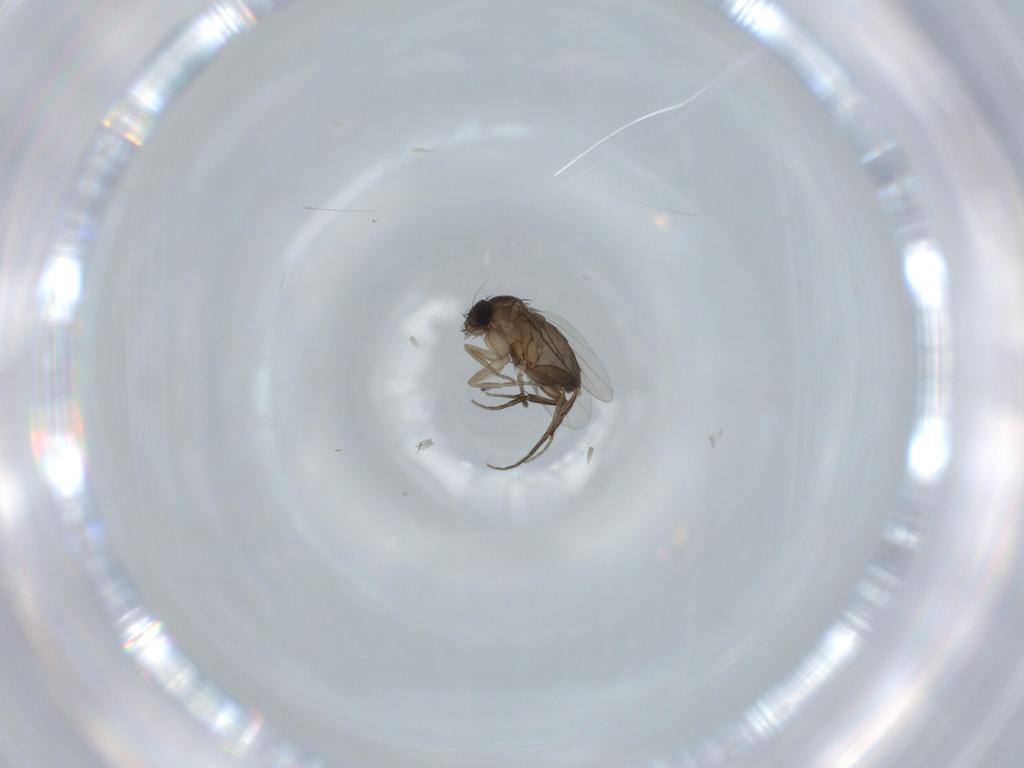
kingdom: Animalia
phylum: Arthropoda
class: Insecta
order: Diptera
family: Phoridae
